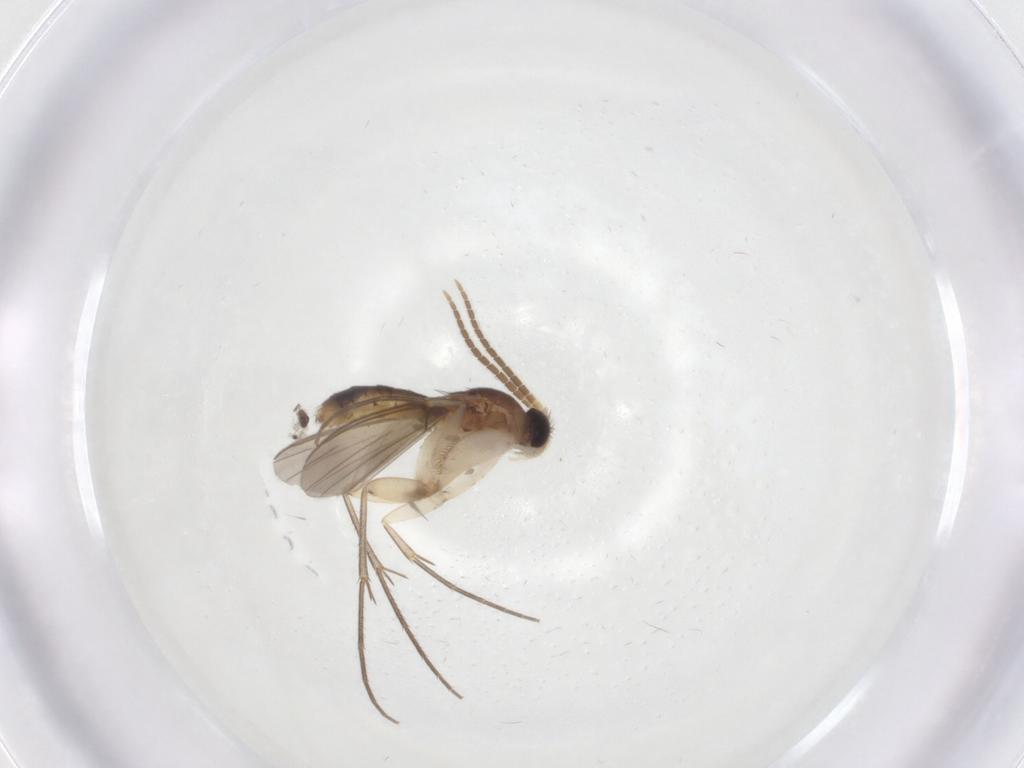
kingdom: Animalia
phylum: Arthropoda
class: Insecta
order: Diptera
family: Mycetophilidae
